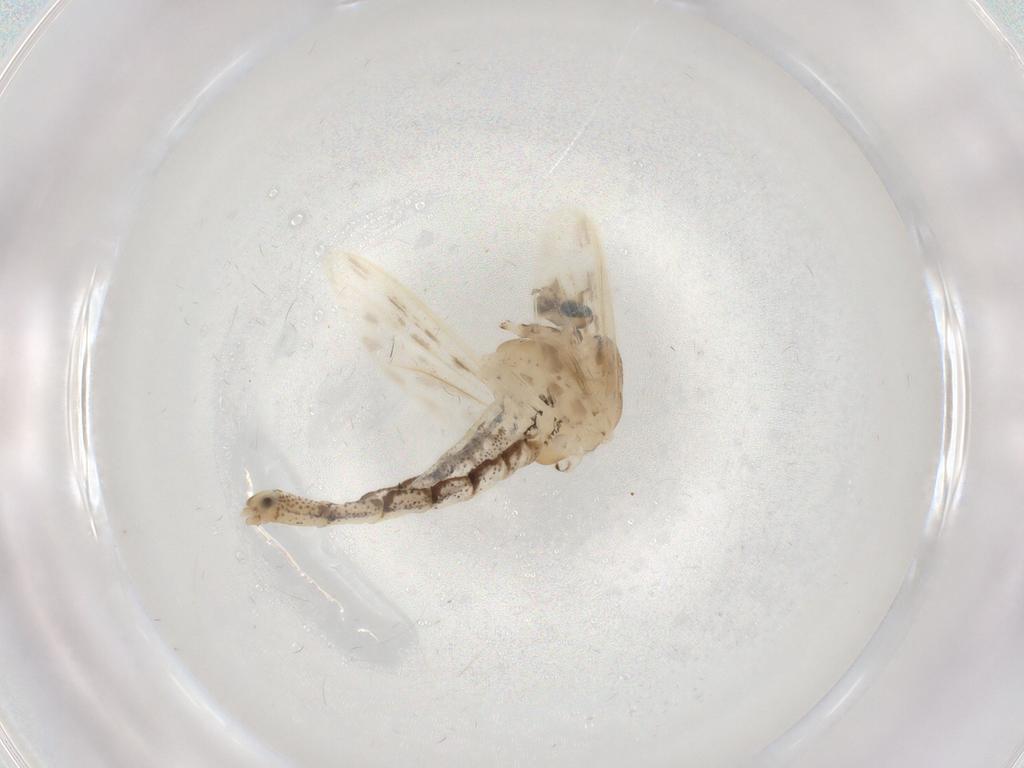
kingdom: Animalia
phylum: Arthropoda
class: Insecta
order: Diptera
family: Chaoboridae
